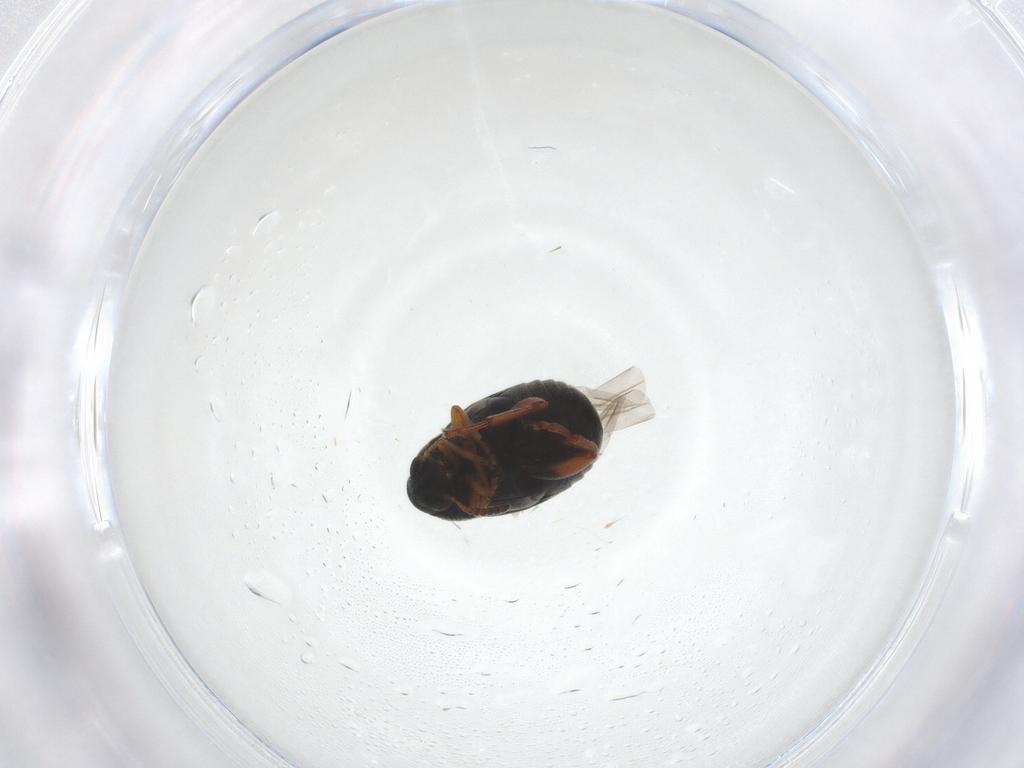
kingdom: Animalia
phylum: Arthropoda
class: Insecta
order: Coleoptera
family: Chrysomelidae
